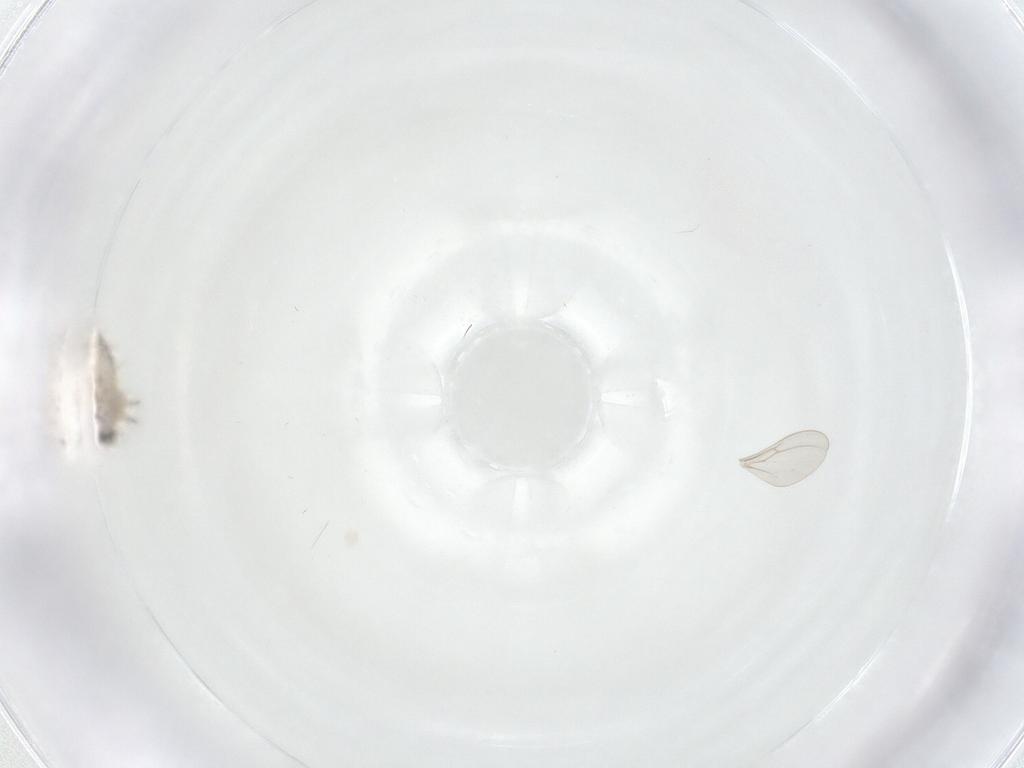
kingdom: Animalia
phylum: Arthropoda
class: Insecta
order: Diptera
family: Cecidomyiidae
